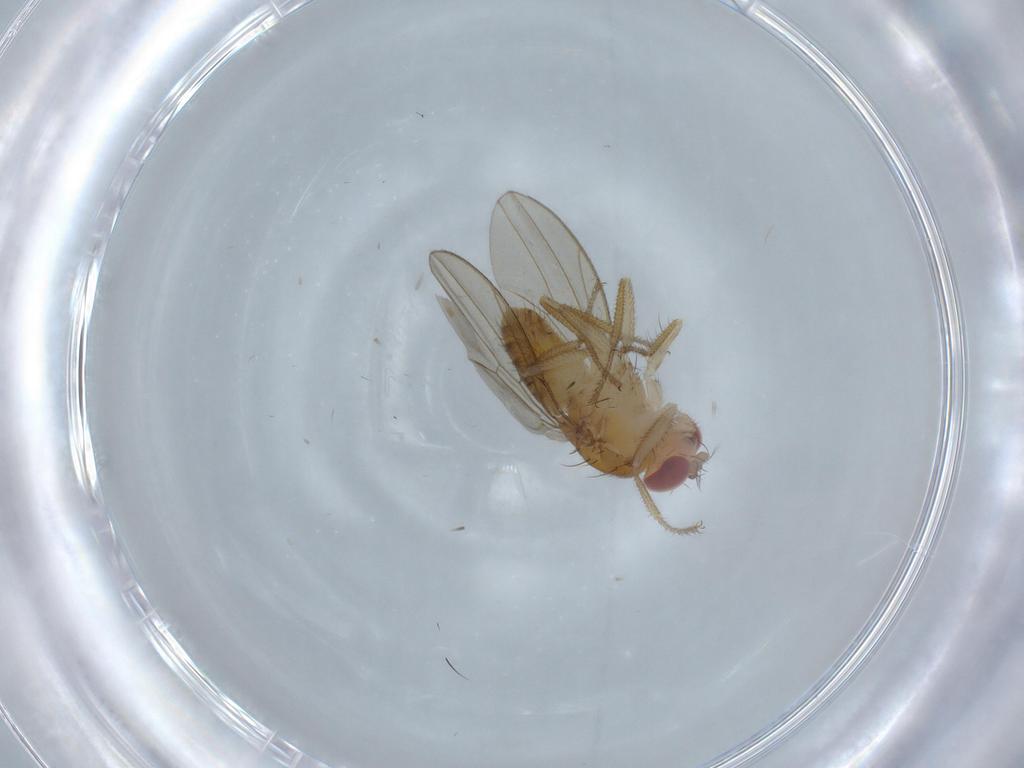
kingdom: Animalia
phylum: Arthropoda
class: Insecta
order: Diptera
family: Drosophilidae
